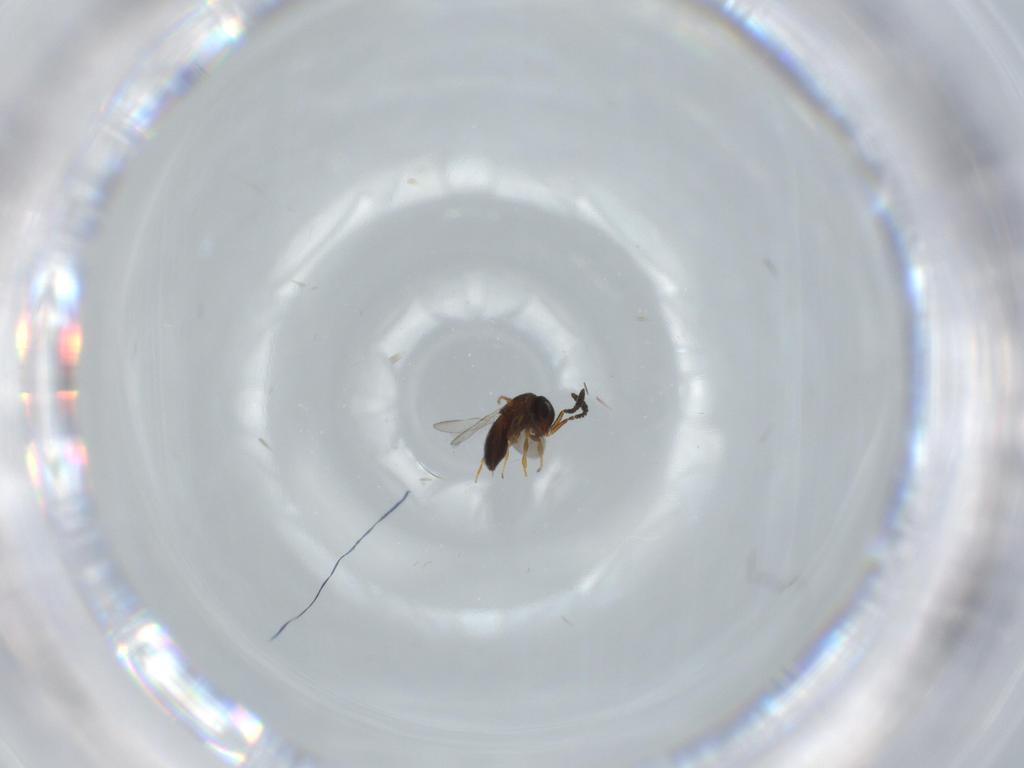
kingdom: Animalia
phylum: Arthropoda
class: Insecta
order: Hymenoptera
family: Scelionidae
